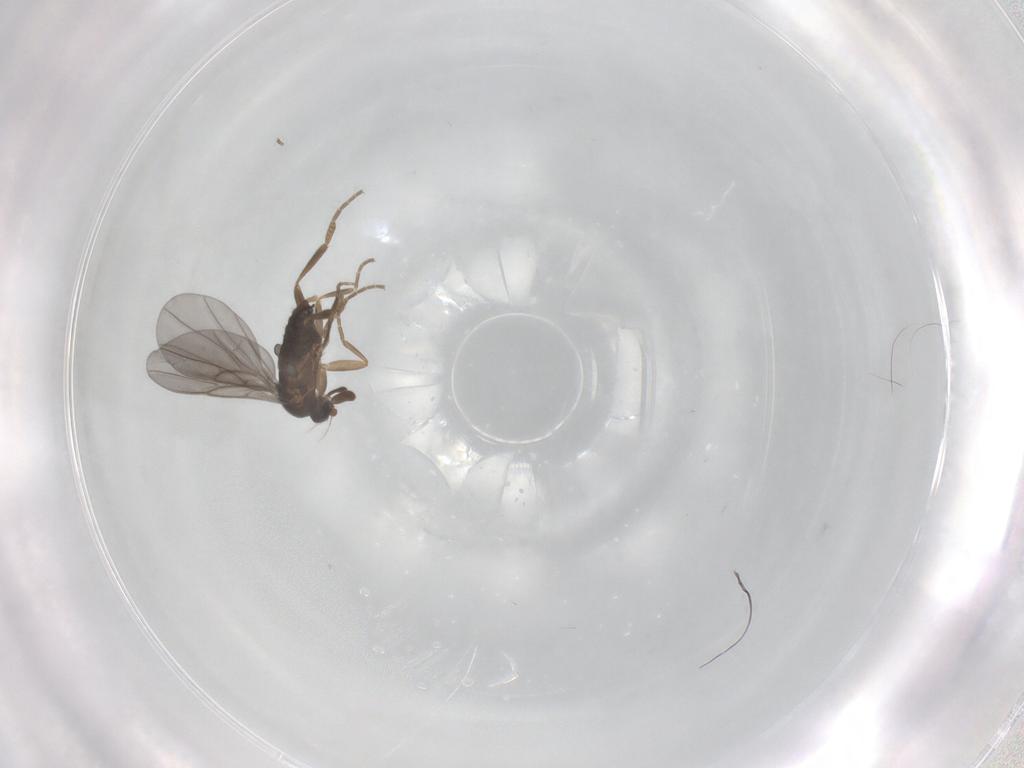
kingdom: Animalia
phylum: Arthropoda
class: Insecta
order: Diptera
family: Phoridae
